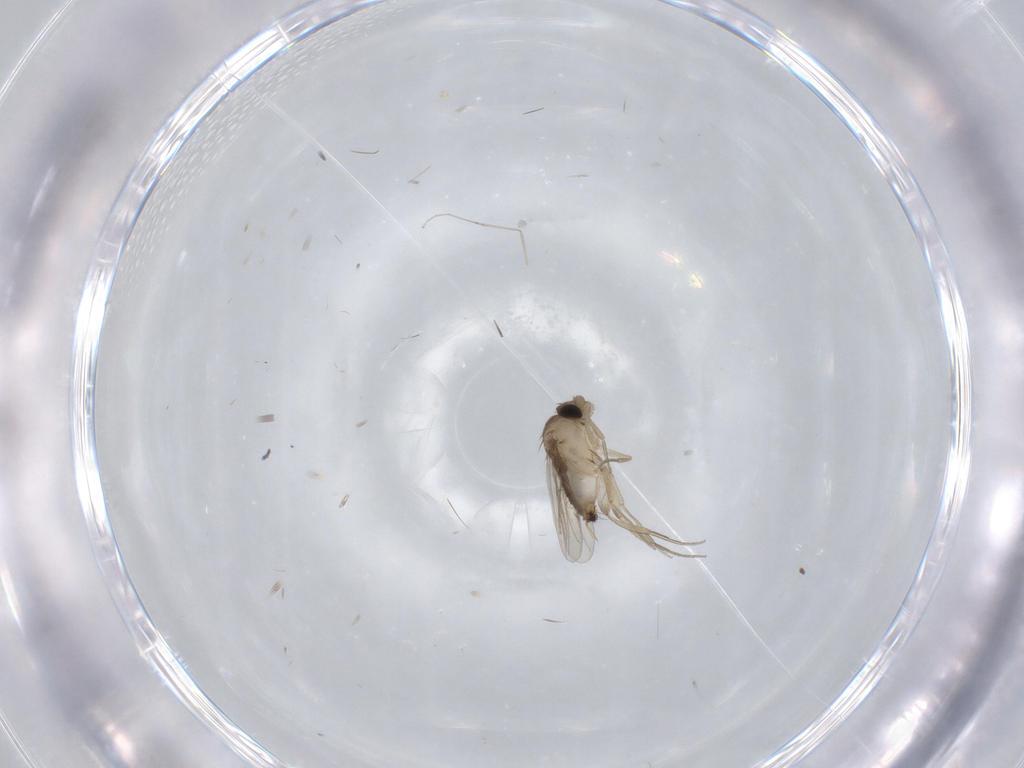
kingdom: Animalia
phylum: Arthropoda
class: Insecta
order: Diptera
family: Phoridae
